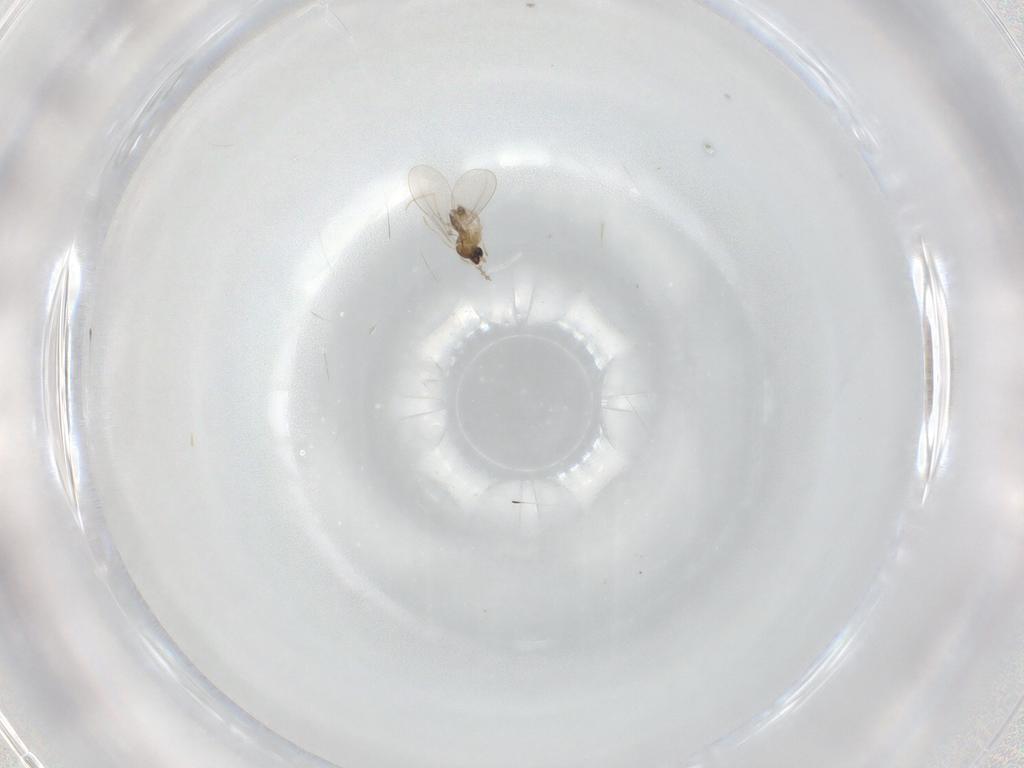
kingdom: Animalia
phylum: Arthropoda
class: Insecta
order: Diptera
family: Cecidomyiidae
